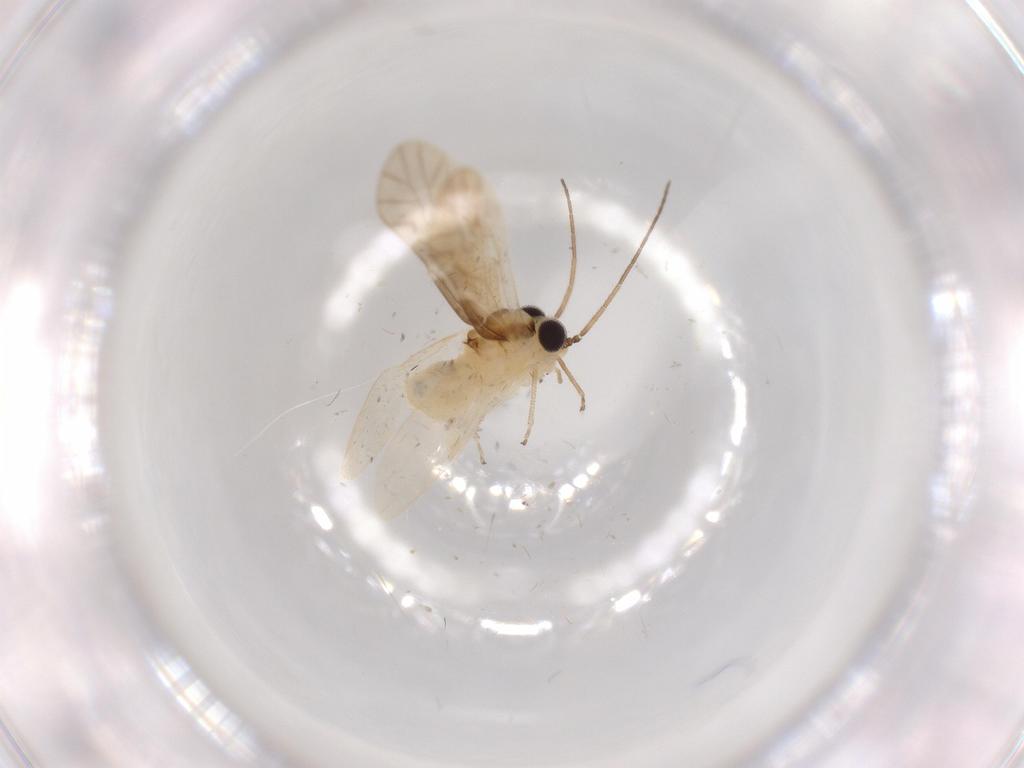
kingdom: Animalia
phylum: Arthropoda
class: Insecta
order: Psocodea
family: Caeciliusidae
